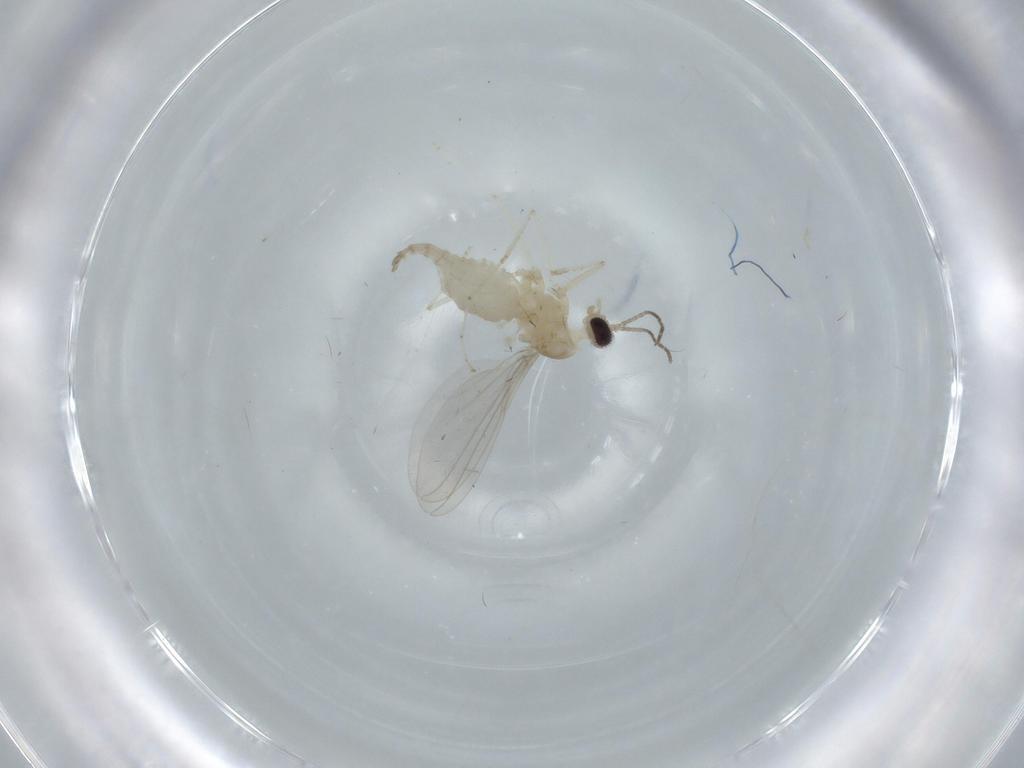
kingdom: Animalia
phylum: Arthropoda
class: Insecta
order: Diptera
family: Cecidomyiidae
